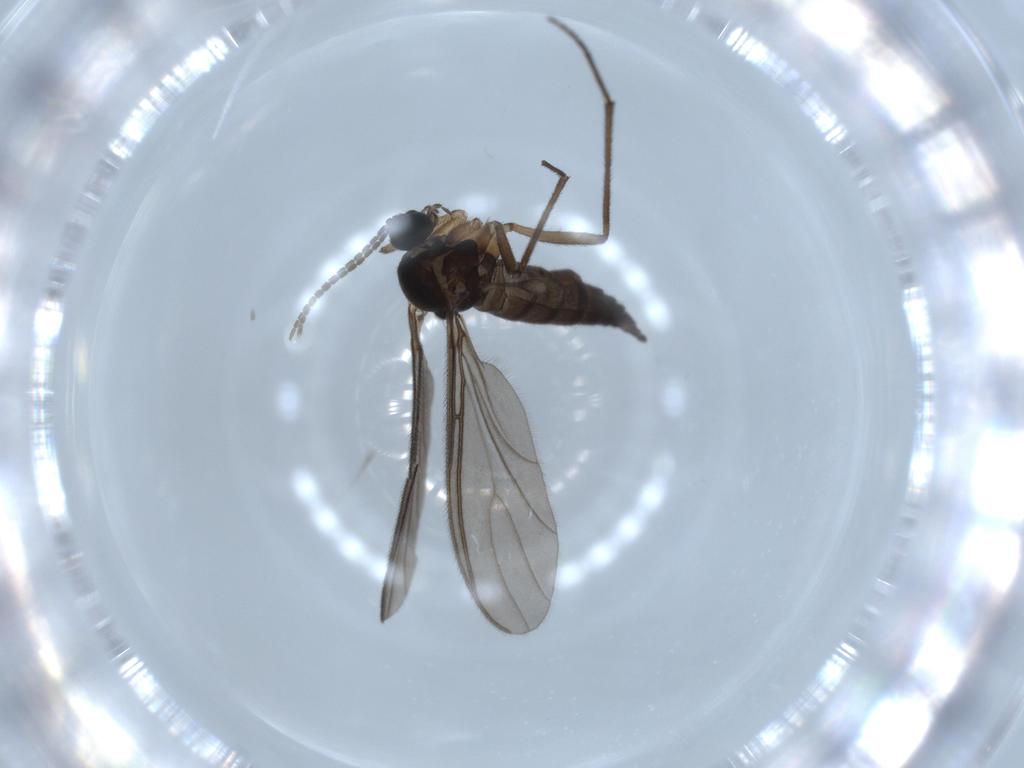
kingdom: Animalia
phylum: Arthropoda
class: Insecta
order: Diptera
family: Sciaridae
